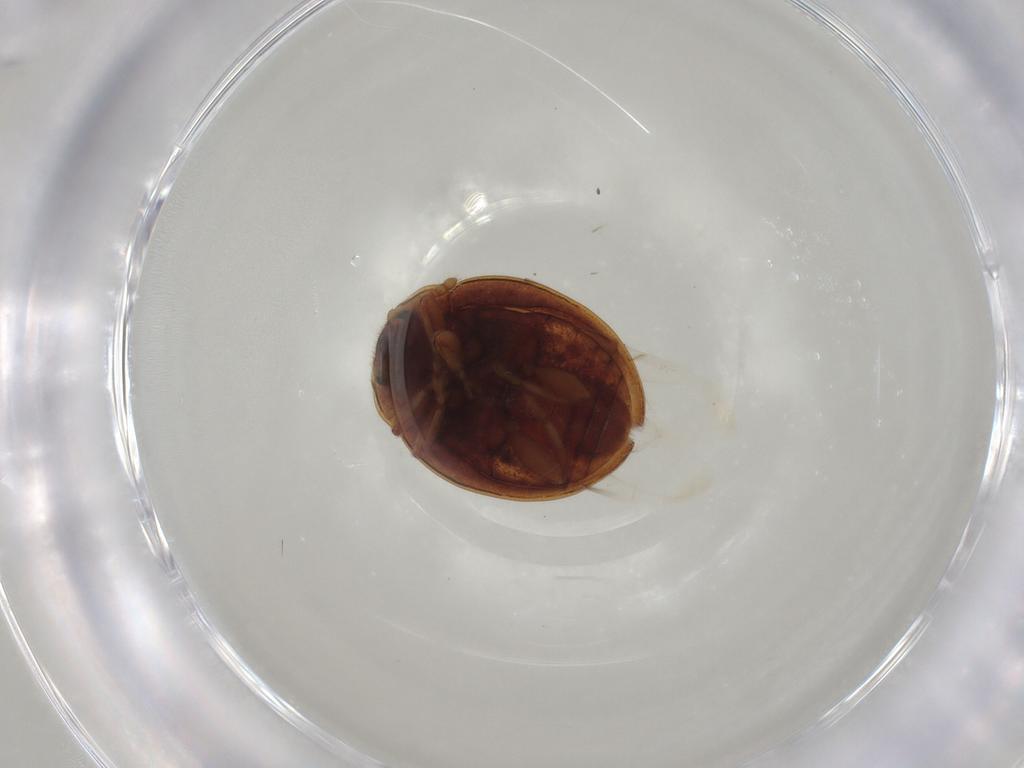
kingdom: Animalia
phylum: Arthropoda
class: Insecta
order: Coleoptera
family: Coccinellidae
